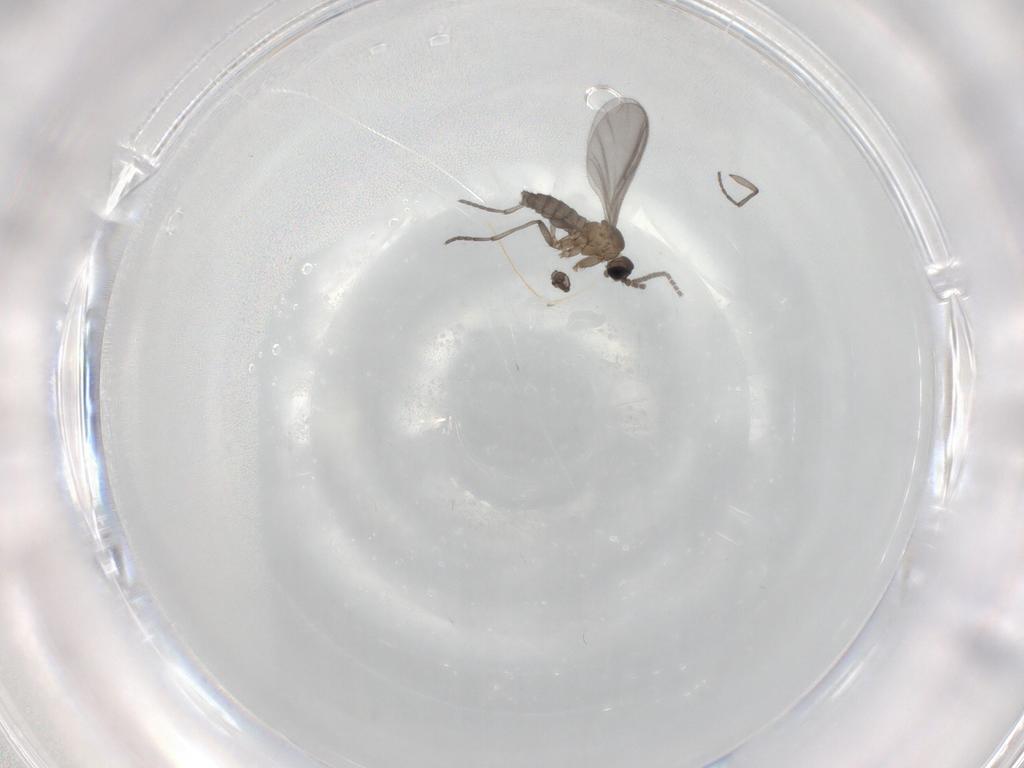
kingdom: Animalia
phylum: Arthropoda
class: Insecta
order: Diptera
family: Sciaridae
